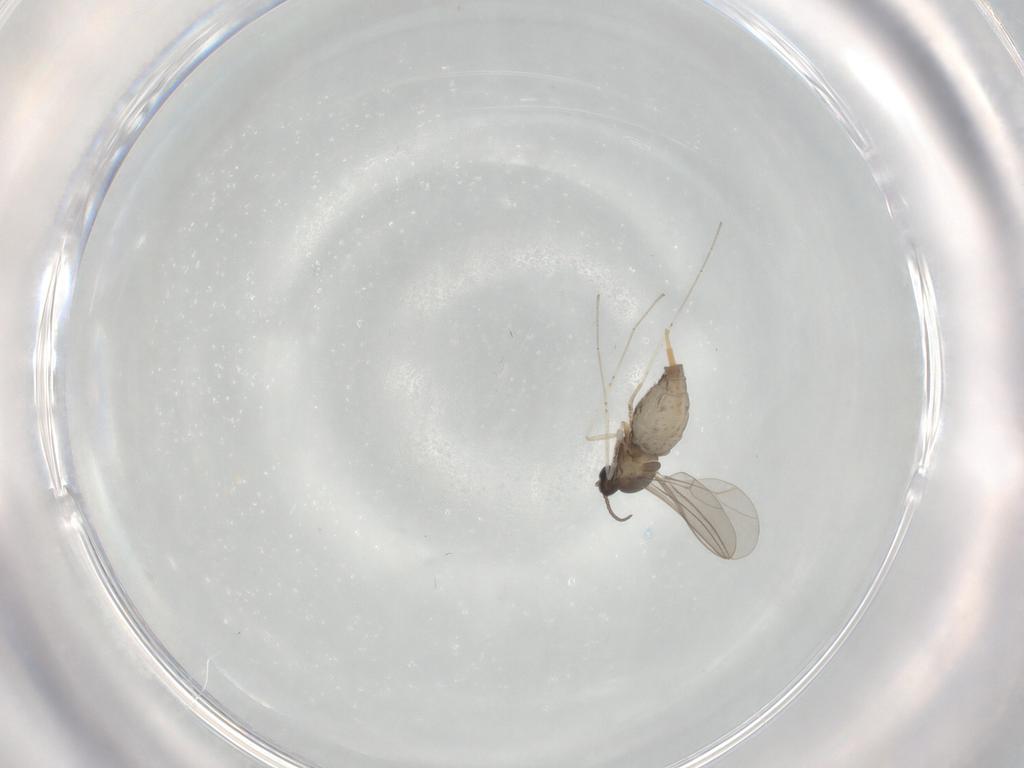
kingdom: Animalia
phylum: Arthropoda
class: Insecta
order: Diptera
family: Cecidomyiidae
